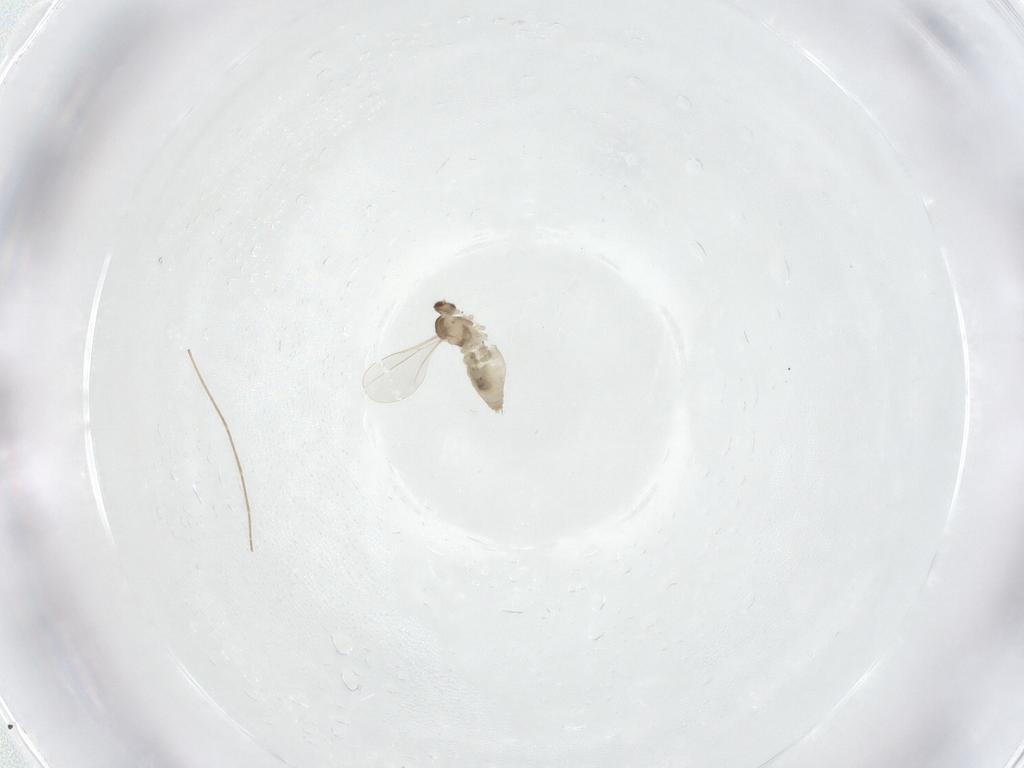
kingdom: Animalia
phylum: Arthropoda
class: Insecta
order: Diptera
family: Cecidomyiidae
